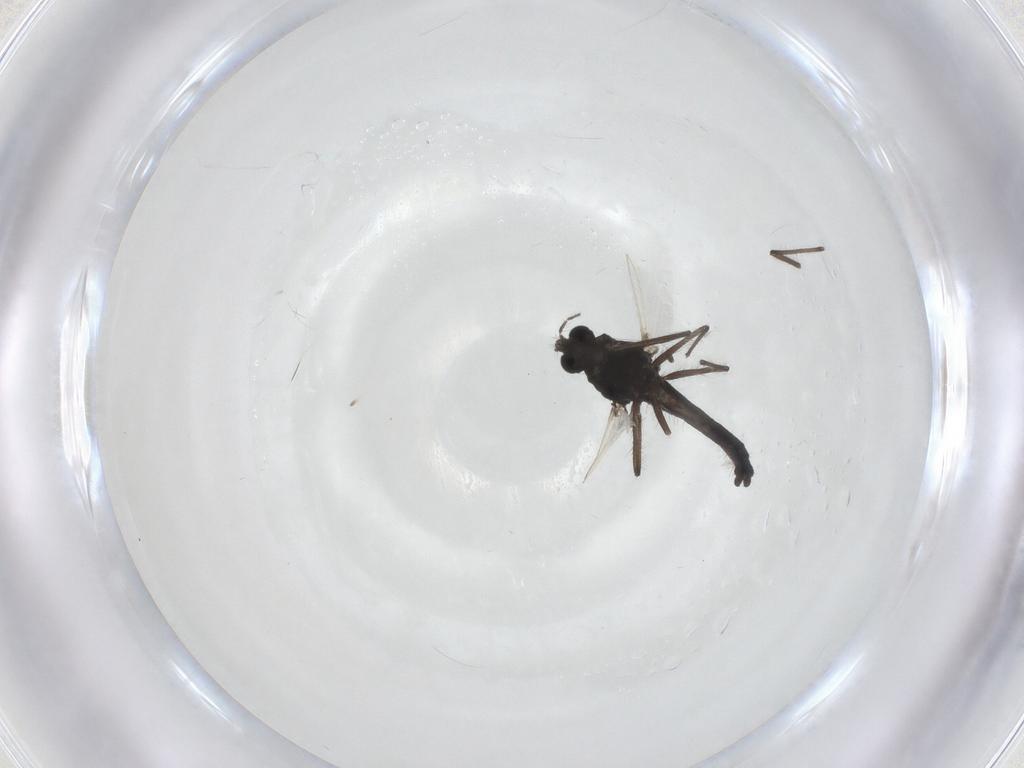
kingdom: Animalia
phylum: Arthropoda
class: Insecta
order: Diptera
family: Chironomidae
